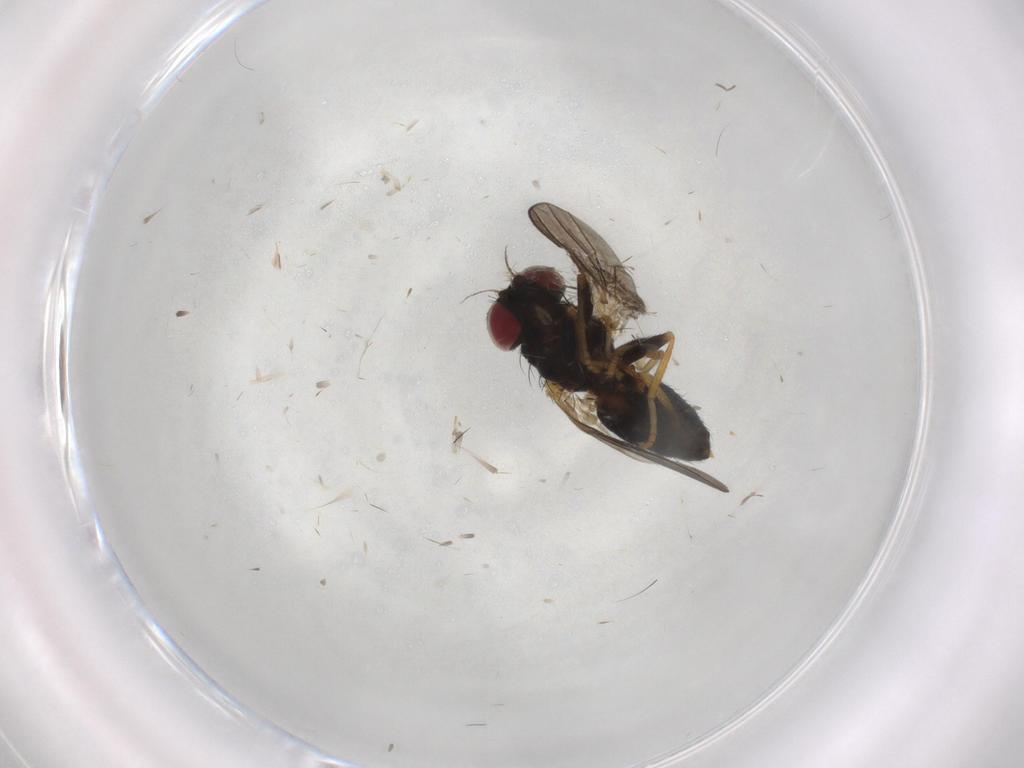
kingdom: Animalia
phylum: Arthropoda
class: Insecta
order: Diptera
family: Chamaemyiidae
